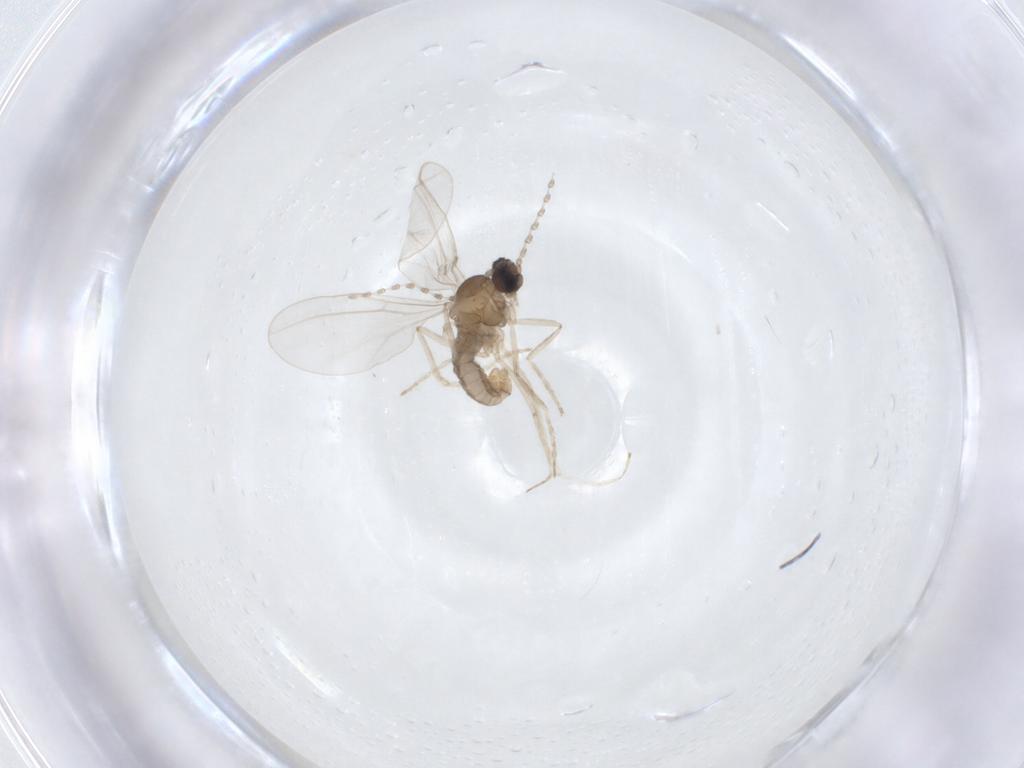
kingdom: Animalia
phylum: Arthropoda
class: Insecta
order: Diptera
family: Cecidomyiidae
